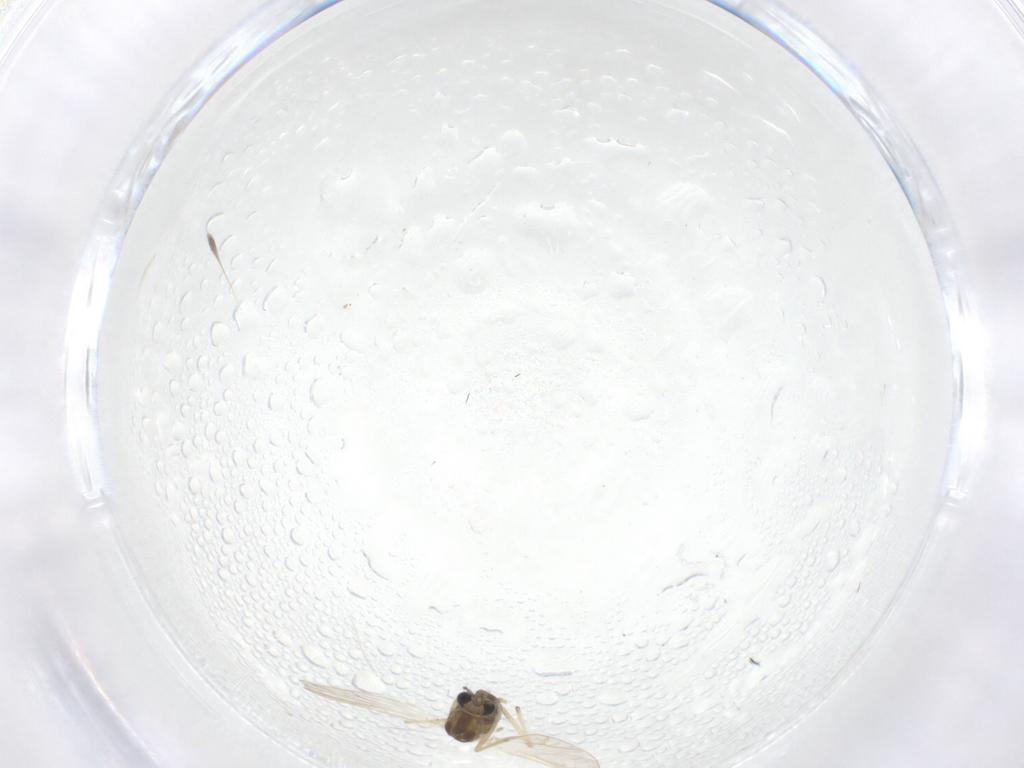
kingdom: Animalia
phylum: Arthropoda
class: Insecta
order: Diptera
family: Chironomidae
